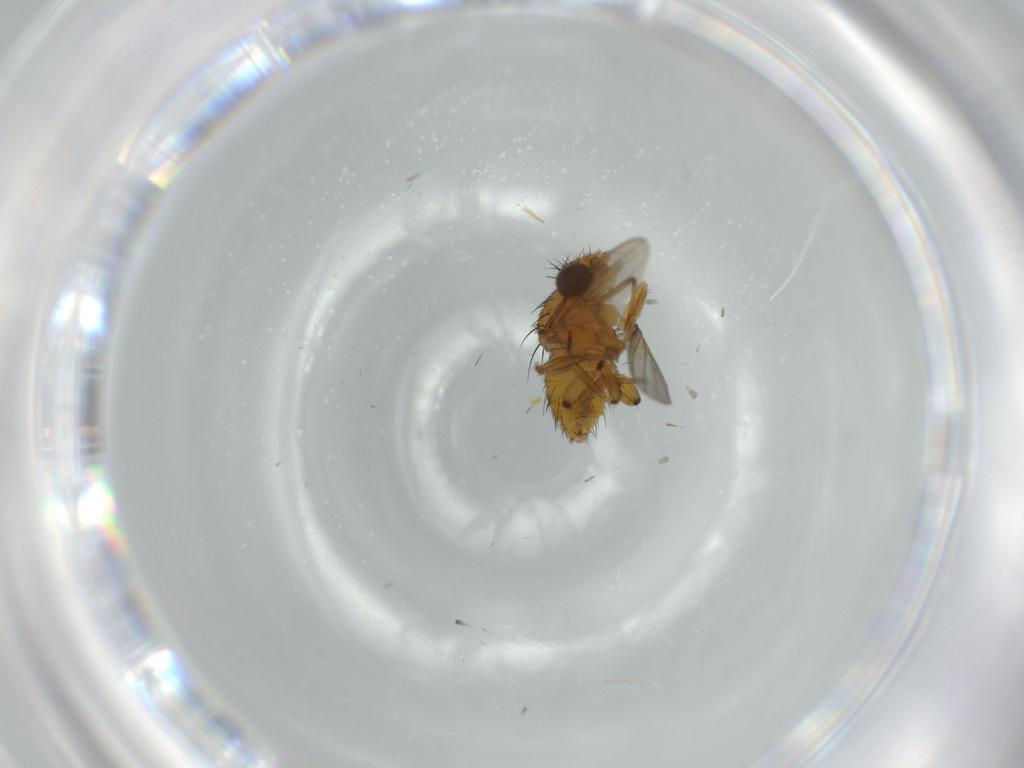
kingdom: Animalia
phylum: Arthropoda
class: Insecta
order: Diptera
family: Milichiidae
